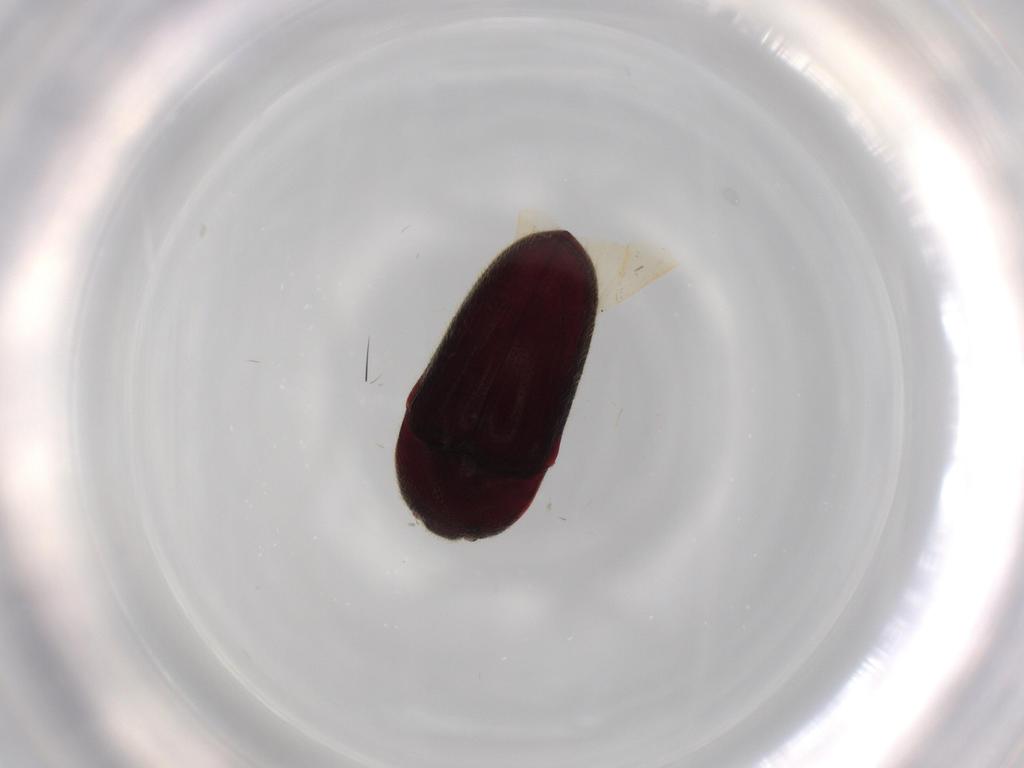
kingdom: Animalia
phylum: Arthropoda
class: Insecta
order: Coleoptera
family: Throscidae
